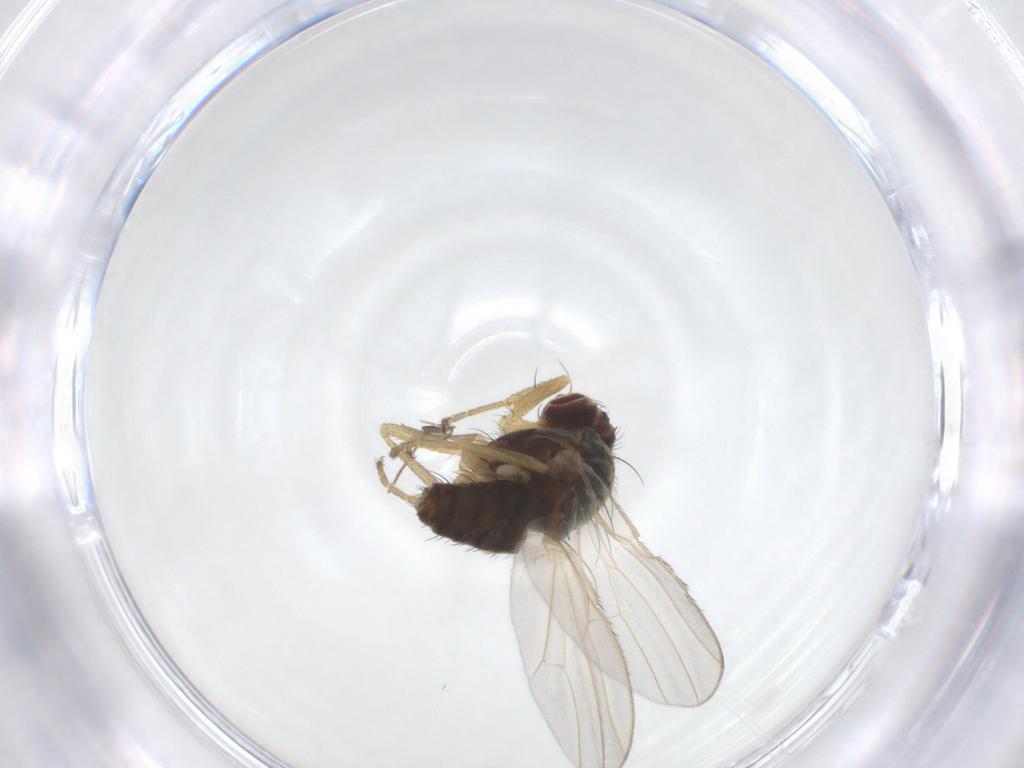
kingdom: Animalia
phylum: Arthropoda
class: Insecta
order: Diptera
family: Heleomyzidae
